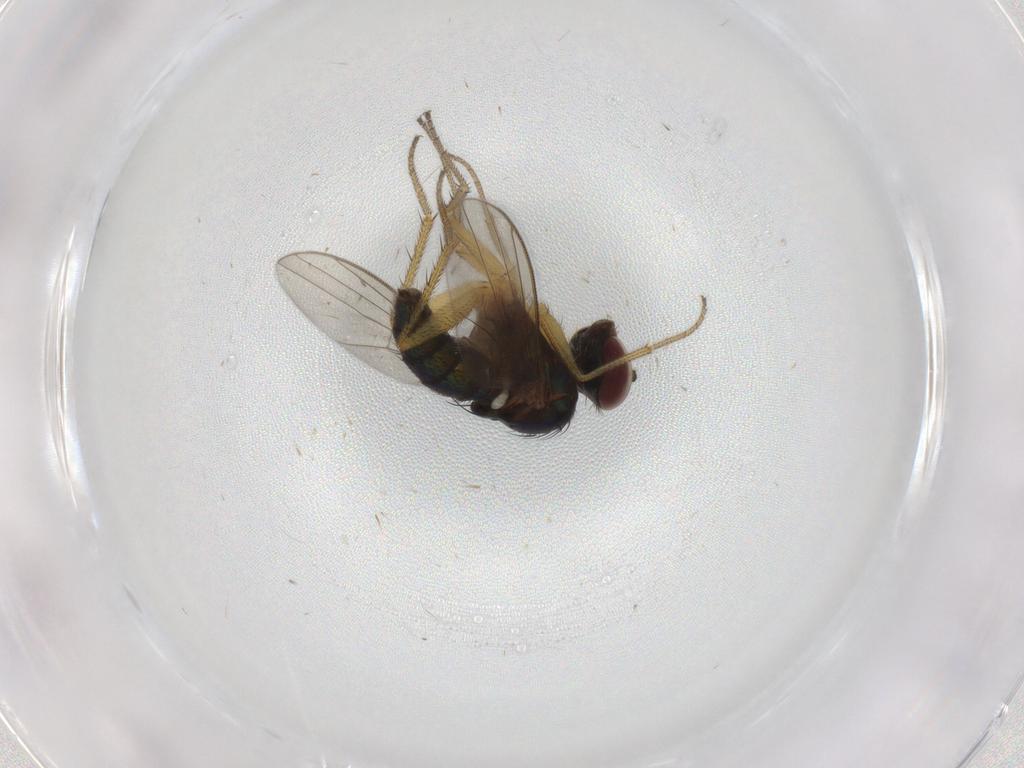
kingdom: Animalia
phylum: Arthropoda
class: Insecta
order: Diptera
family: Dolichopodidae
